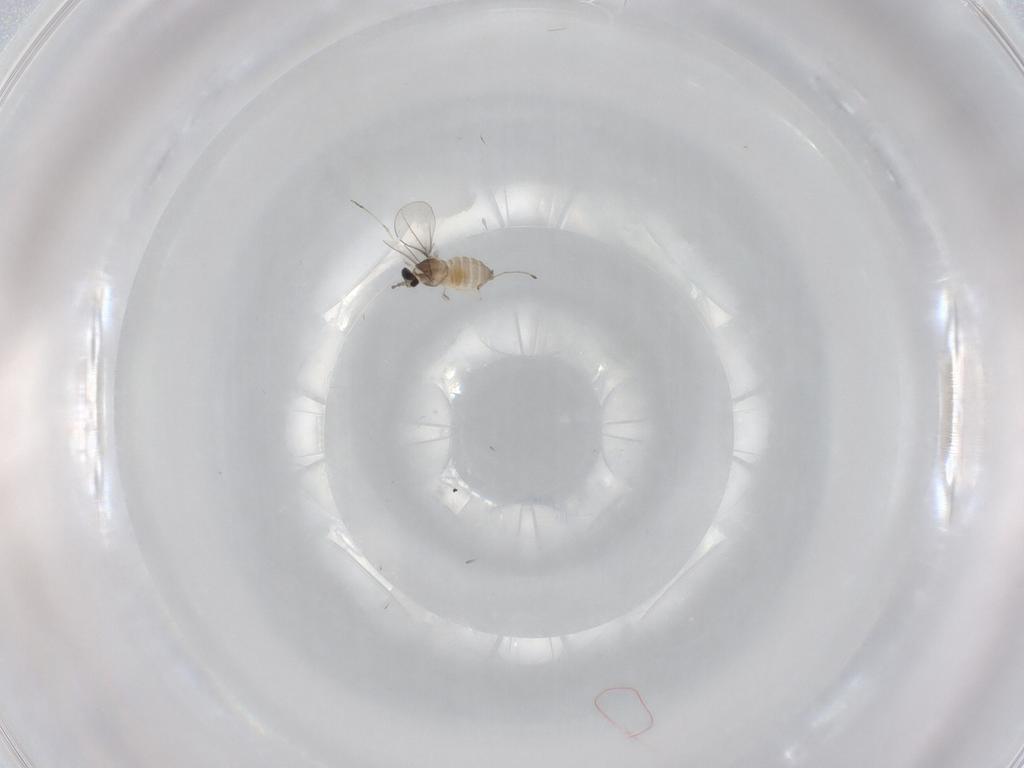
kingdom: Animalia
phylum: Arthropoda
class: Insecta
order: Diptera
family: Cecidomyiidae
